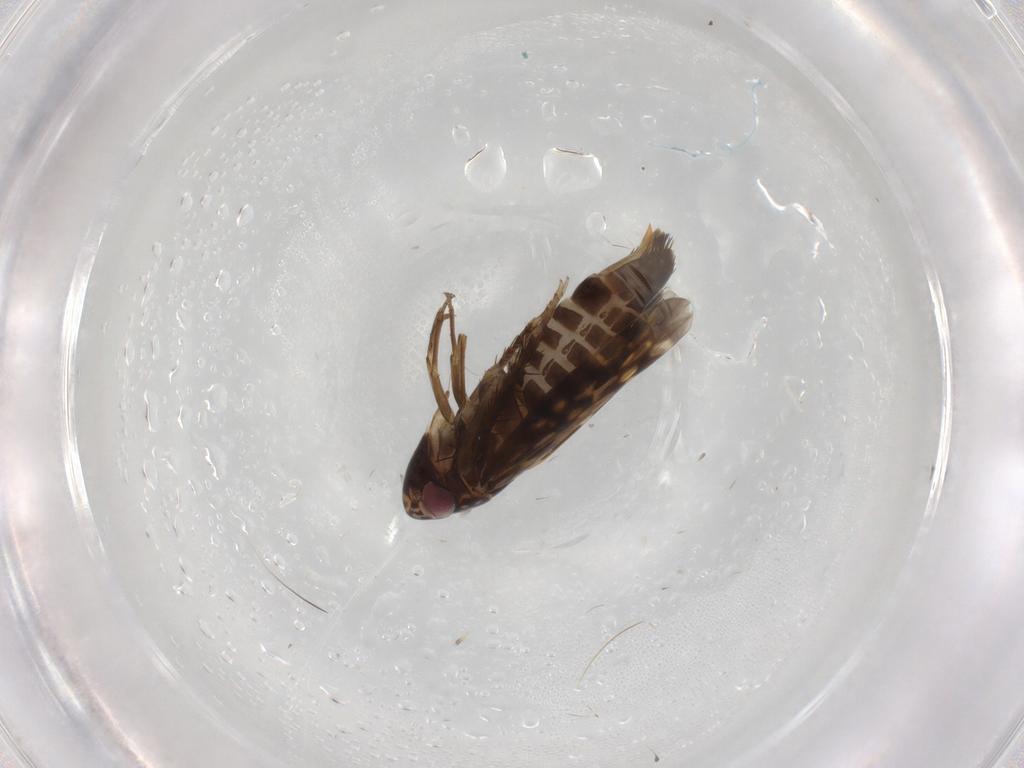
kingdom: Animalia
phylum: Arthropoda
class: Insecta
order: Hemiptera
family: Cicadellidae
